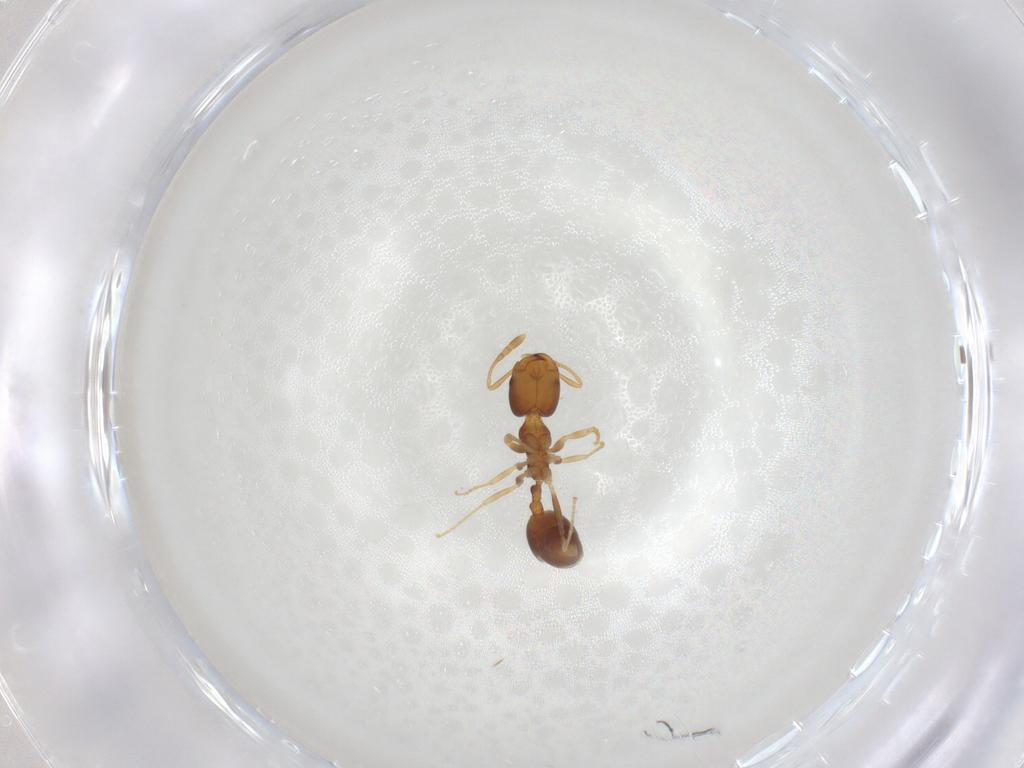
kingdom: Animalia
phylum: Arthropoda
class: Insecta
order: Hymenoptera
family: Formicidae
